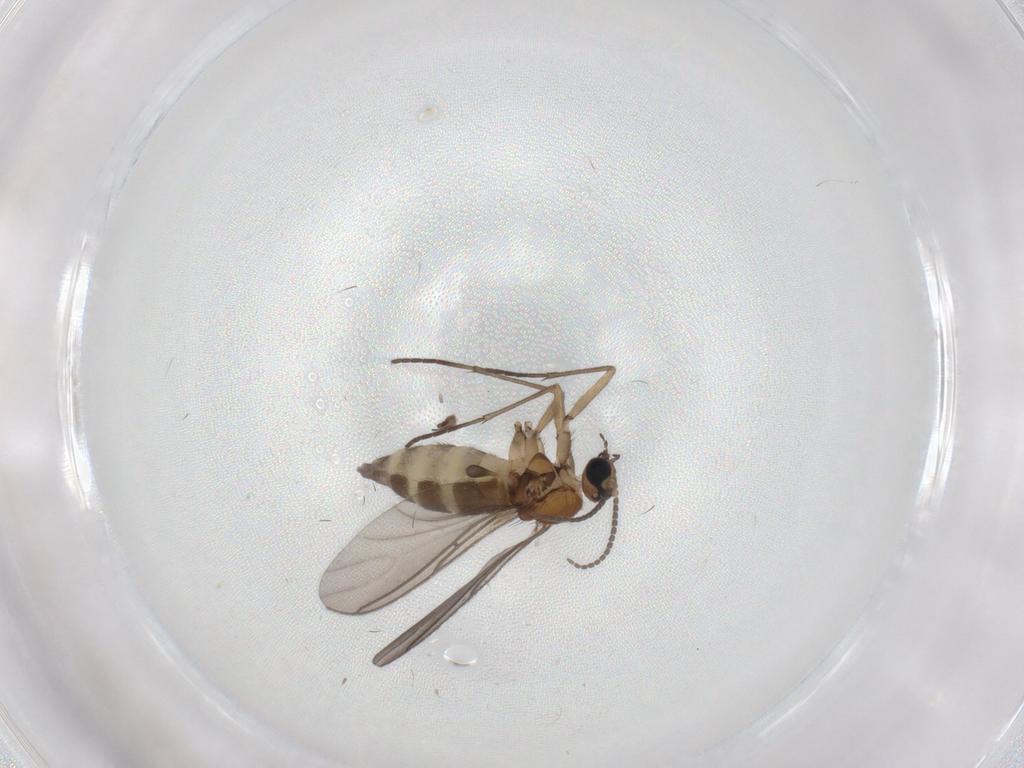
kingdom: Animalia
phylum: Arthropoda
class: Insecta
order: Diptera
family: Sciaridae
